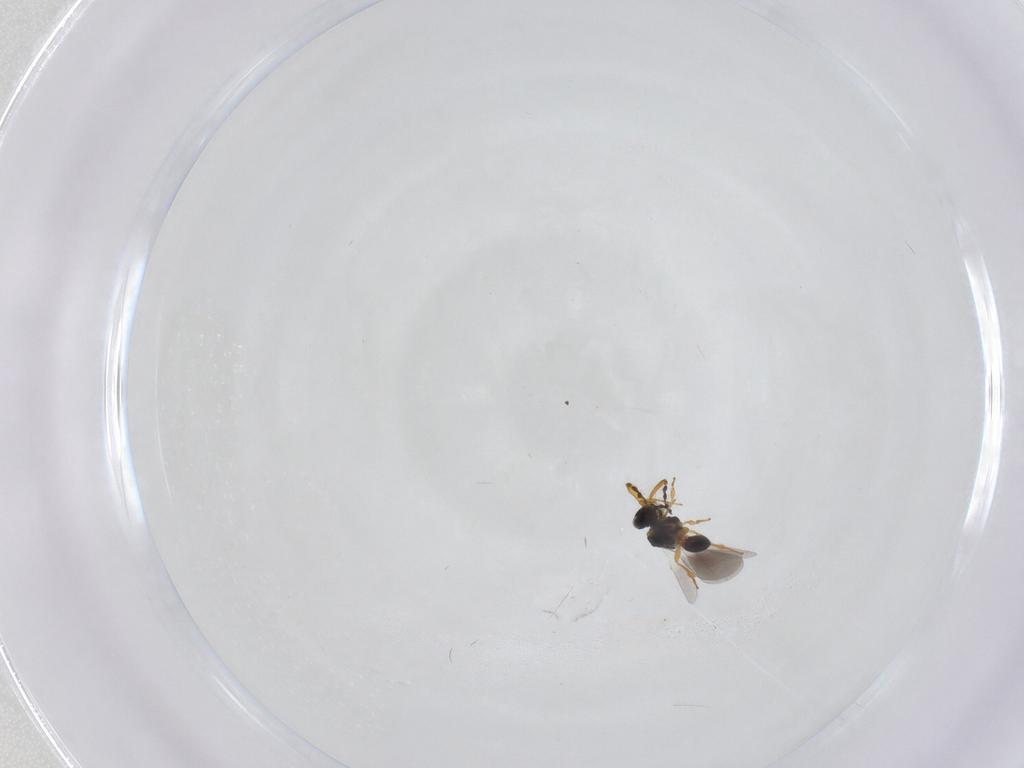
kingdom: Animalia
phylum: Arthropoda
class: Insecta
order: Hymenoptera
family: Platygastridae
